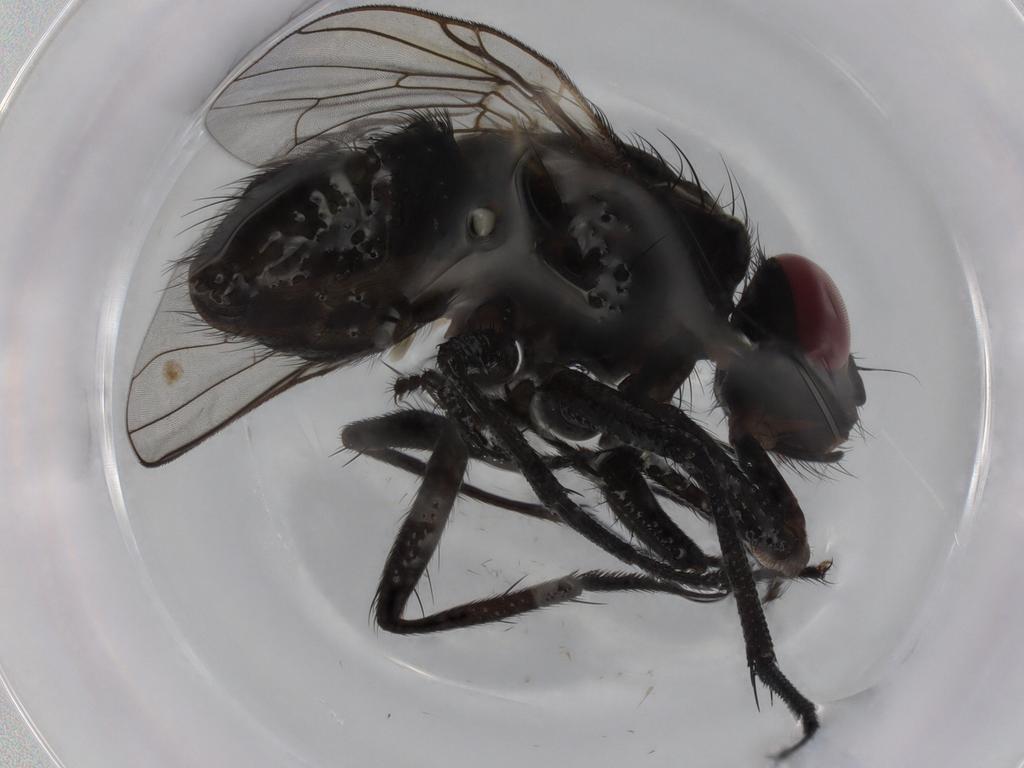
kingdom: Animalia
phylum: Arthropoda
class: Insecta
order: Diptera
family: Muscidae
